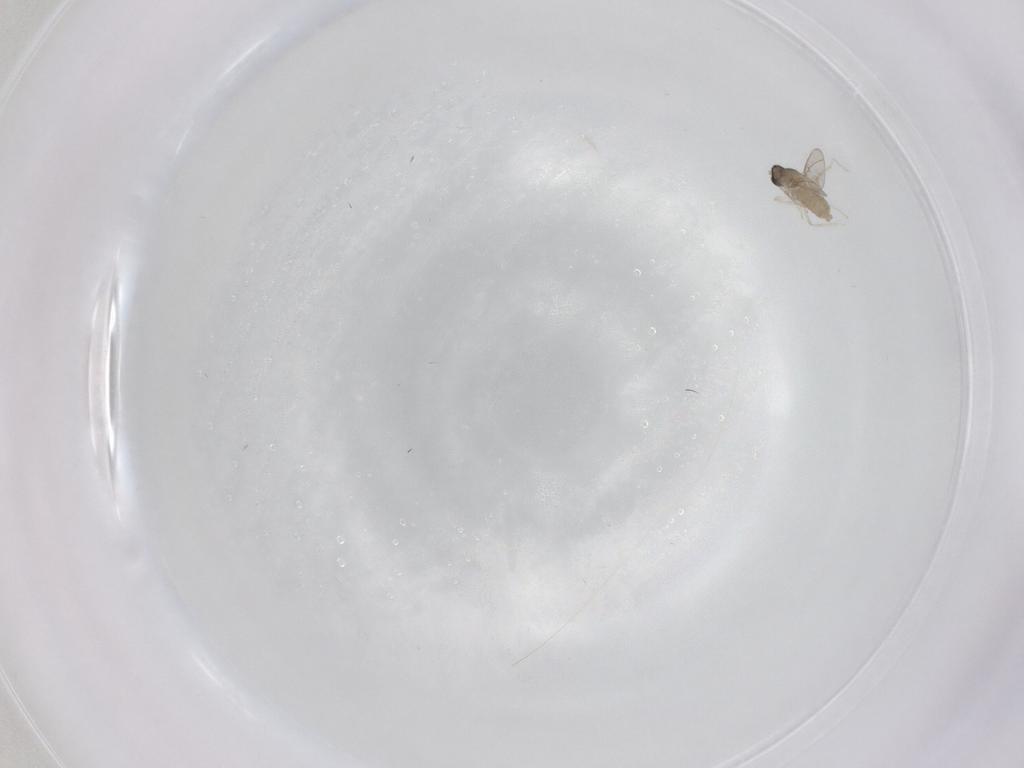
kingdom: Animalia
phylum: Arthropoda
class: Insecta
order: Diptera
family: Cecidomyiidae
